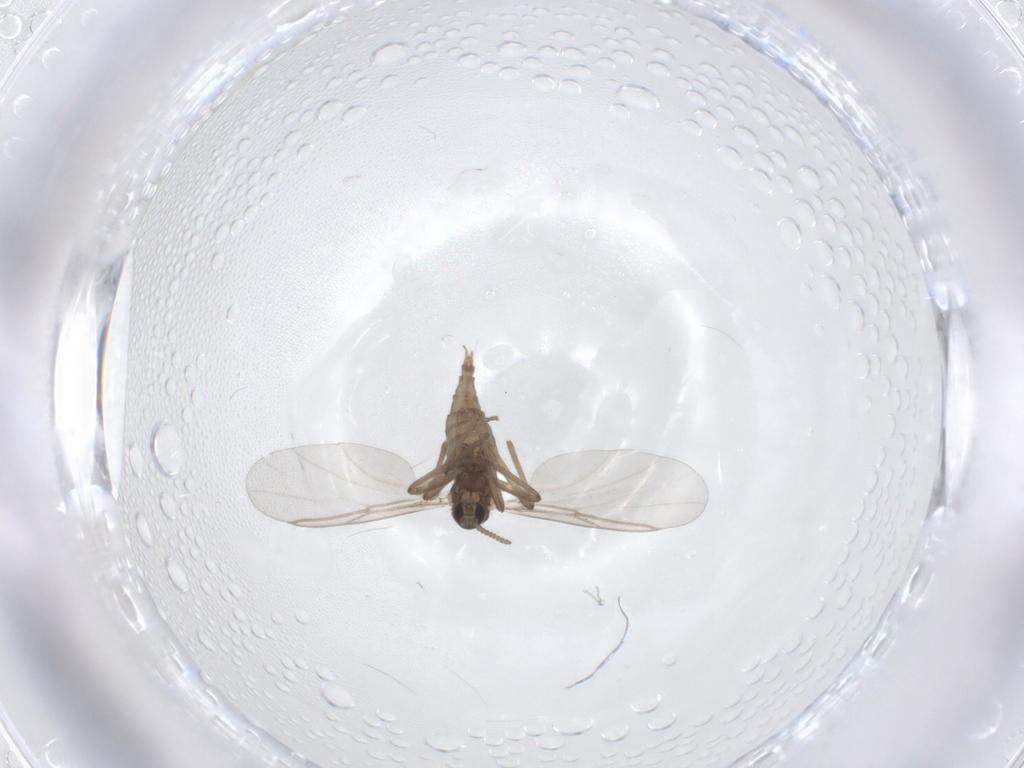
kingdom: Animalia
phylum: Arthropoda
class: Insecta
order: Diptera
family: Cecidomyiidae
